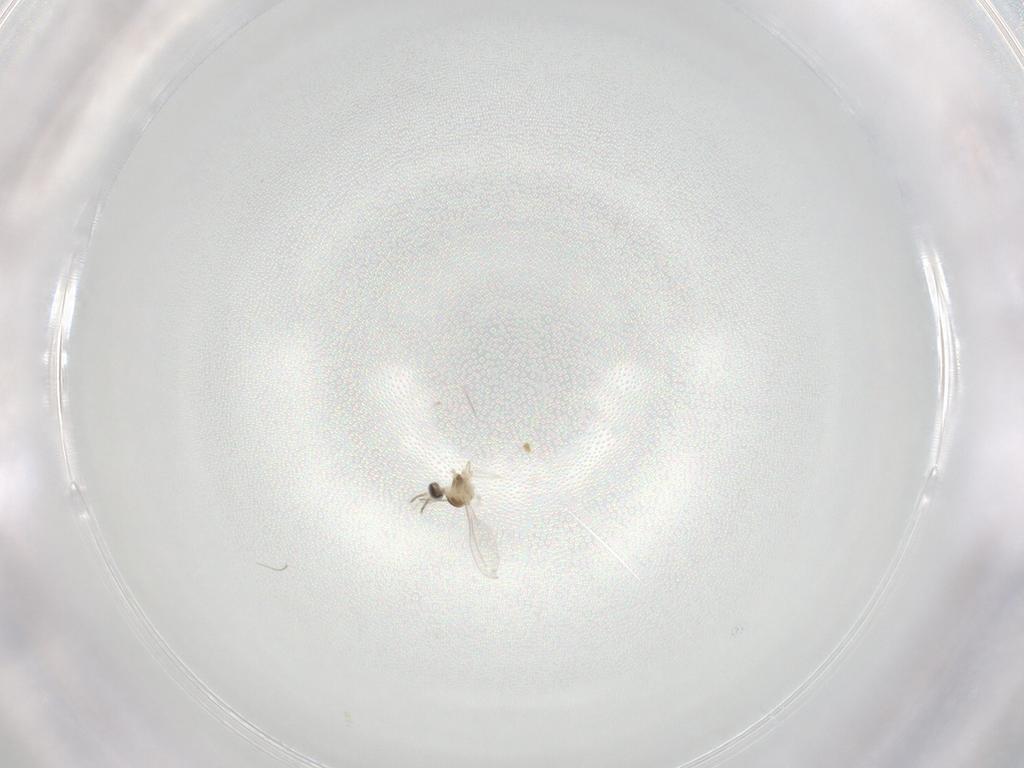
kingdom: Animalia
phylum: Arthropoda
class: Insecta
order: Diptera
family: Cecidomyiidae
